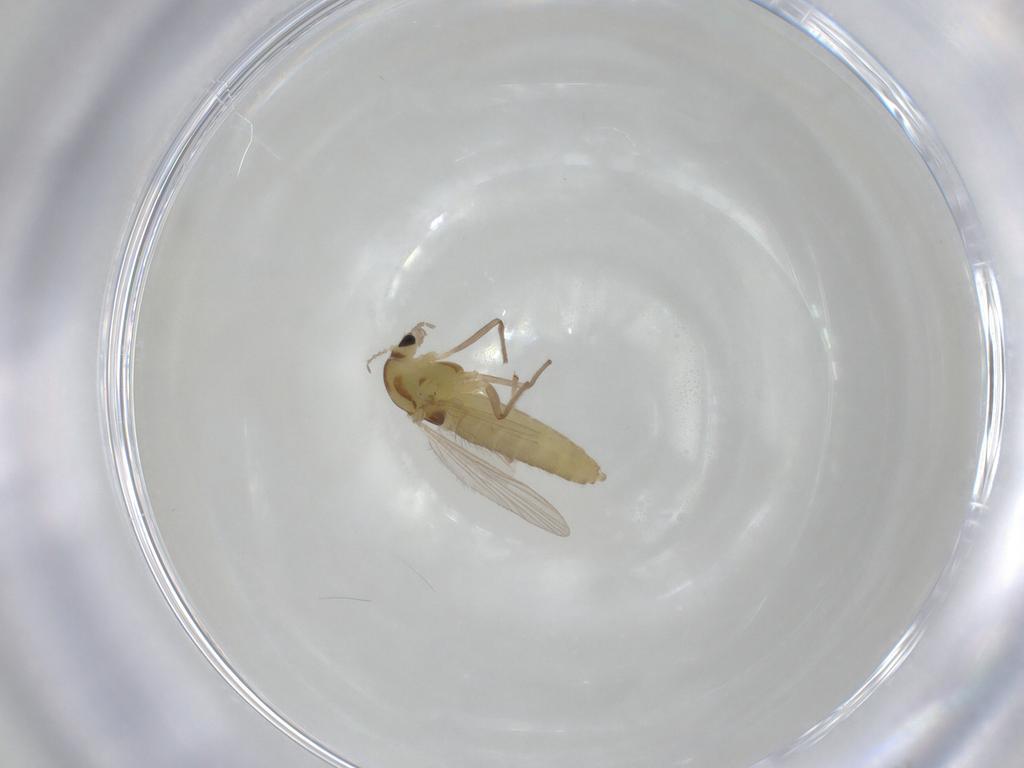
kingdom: Animalia
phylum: Arthropoda
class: Insecta
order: Diptera
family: Chironomidae
